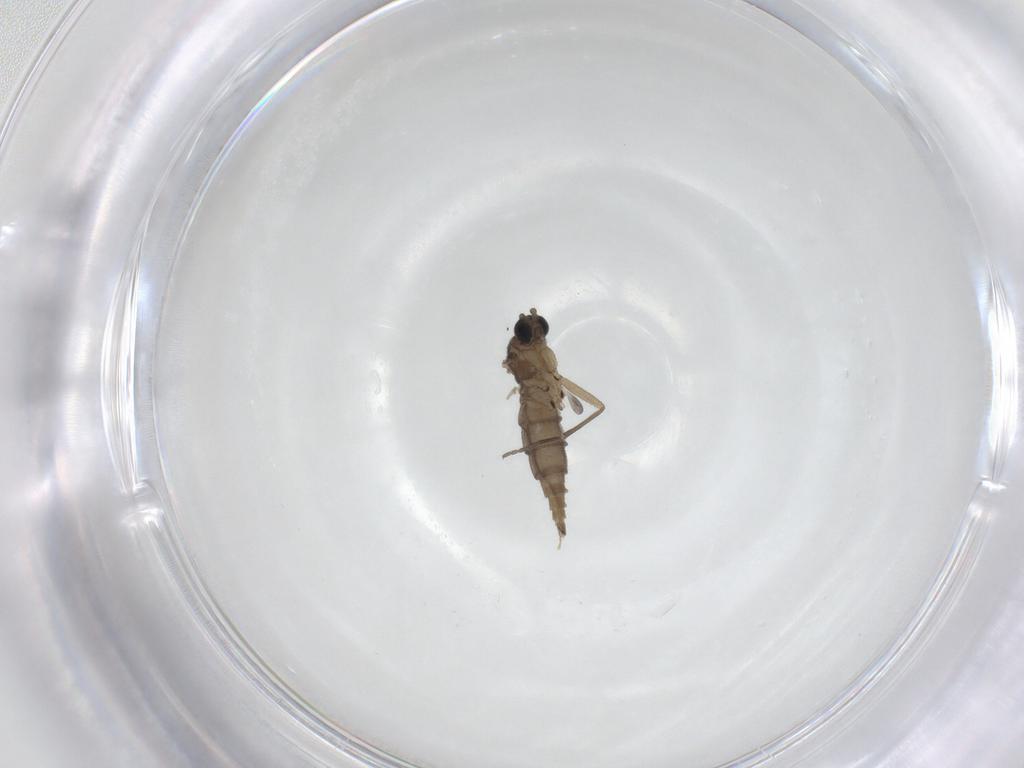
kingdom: Animalia
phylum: Arthropoda
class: Insecta
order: Diptera
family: Sciaridae
